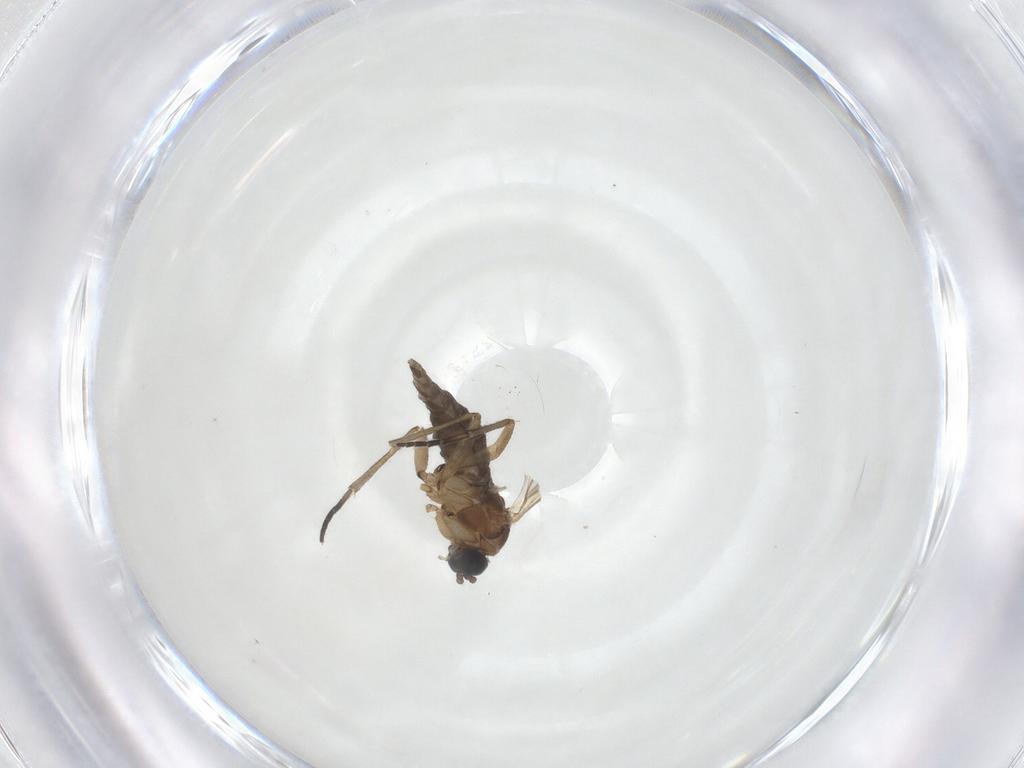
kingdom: Animalia
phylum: Arthropoda
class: Insecta
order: Diptera
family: Sciaridae
